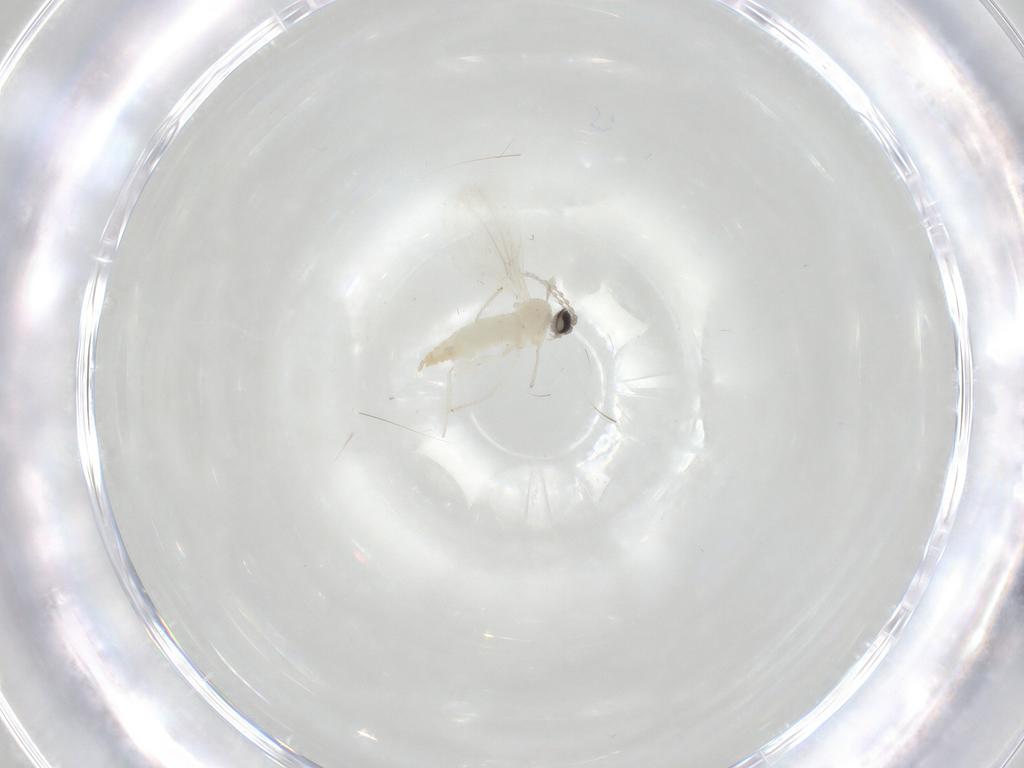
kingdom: Animalia
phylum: Arthropoda
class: Insecta
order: Diptera
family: Cecidomyiidae
